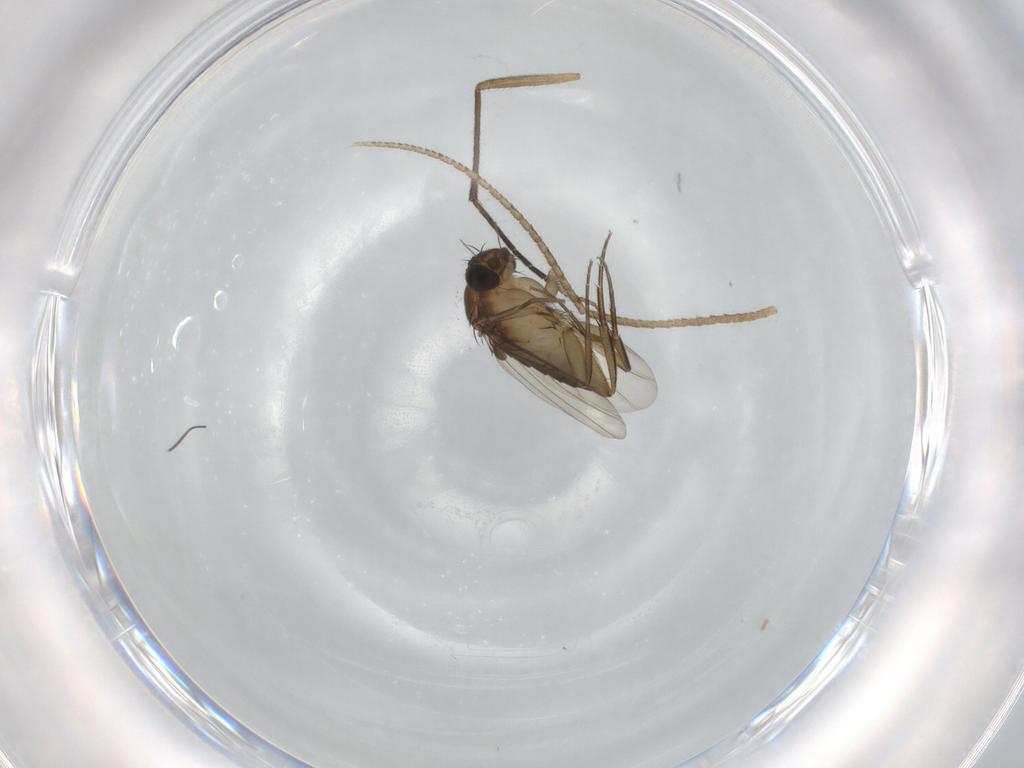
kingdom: Animalia
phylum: Arthropoda
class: Insecta
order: Diptera
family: Phoridae
